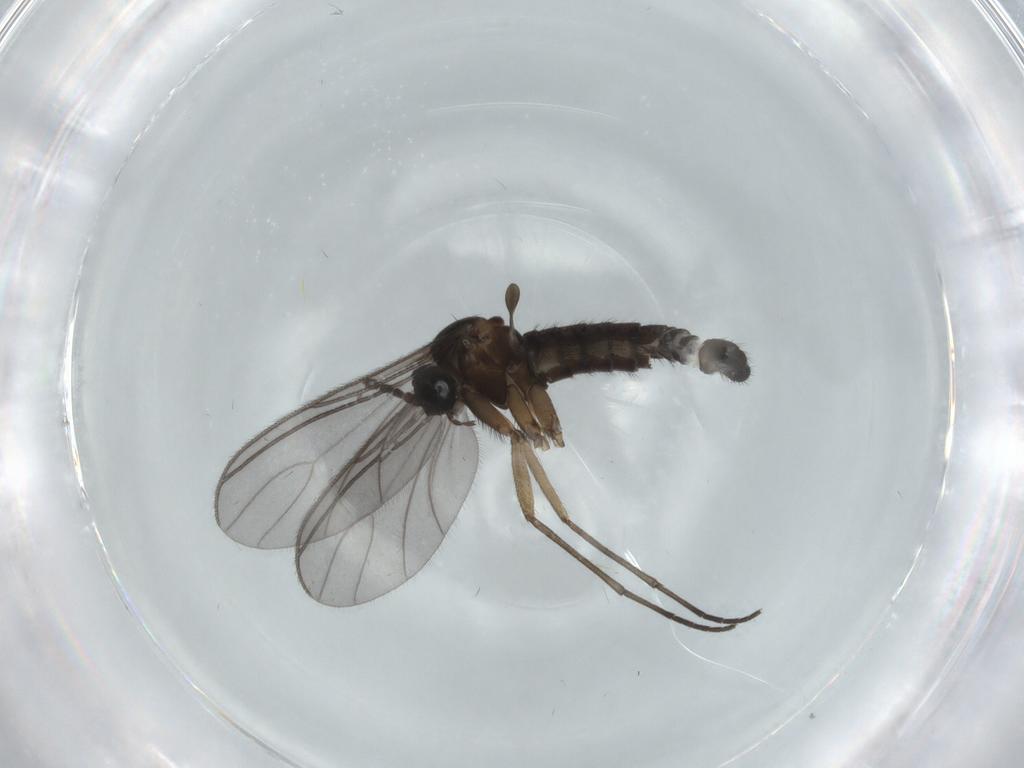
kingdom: Animalia
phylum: Arthropoda
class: Insecta
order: Diptera
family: Sciaridae
